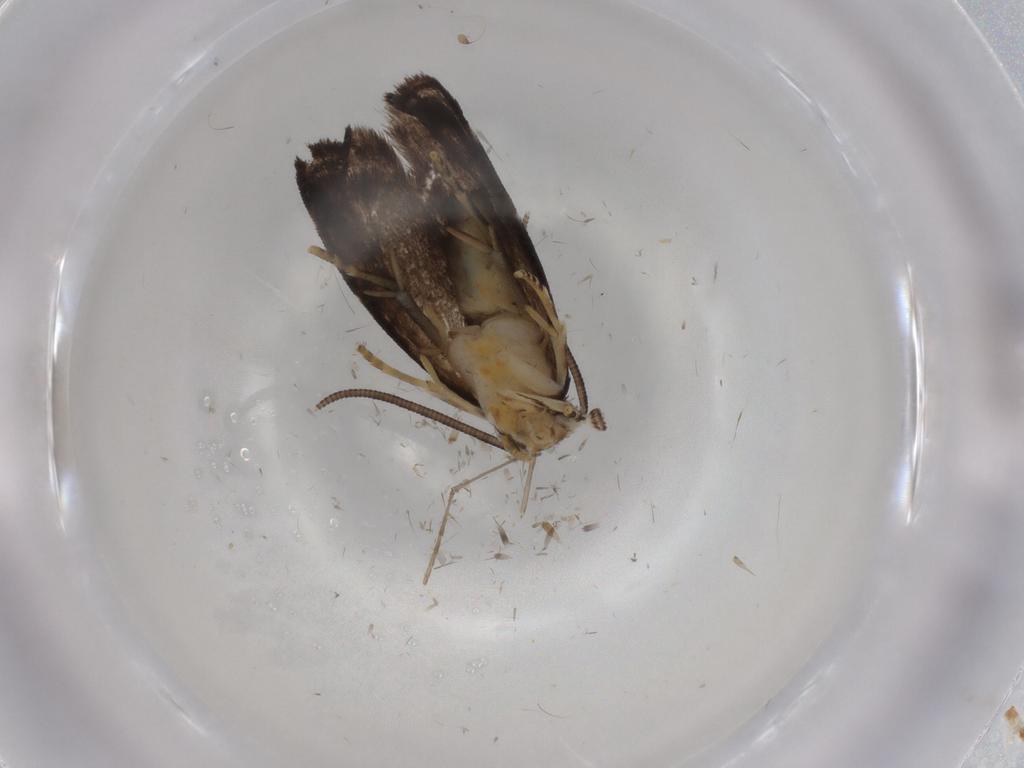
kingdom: Animalia
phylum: Arthropoda
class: Insecta
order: Lepidoptera
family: Dryadaulidae
